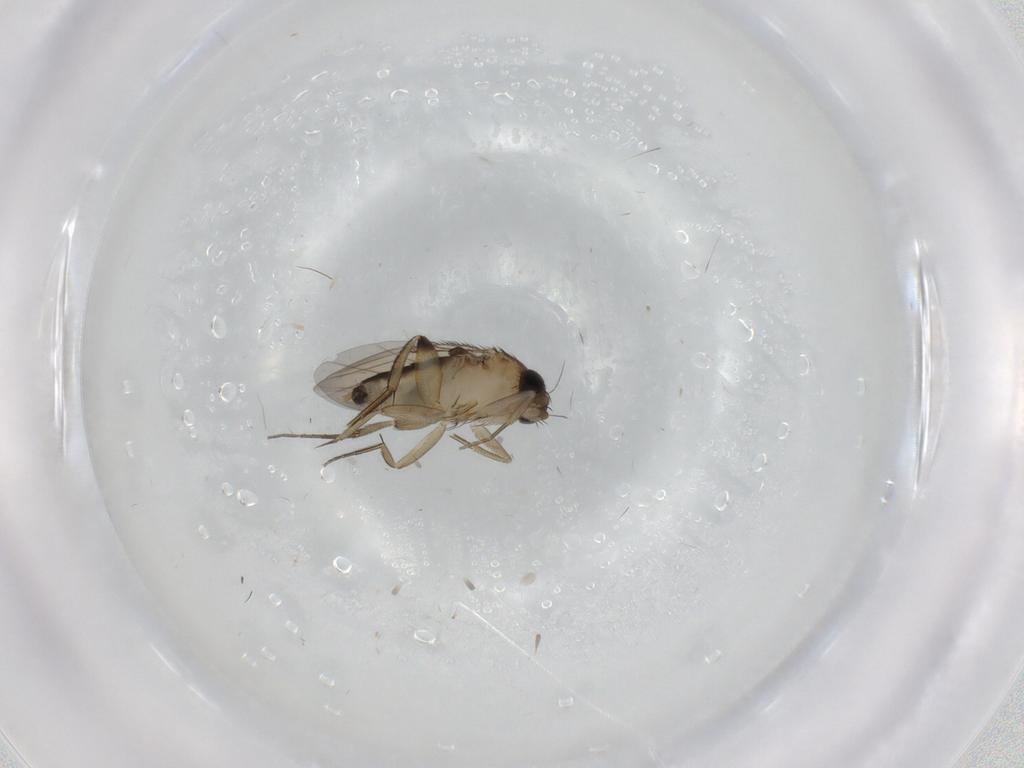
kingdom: Animalia
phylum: Arthropoda
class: Insecta
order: Diptera
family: Phoridae
